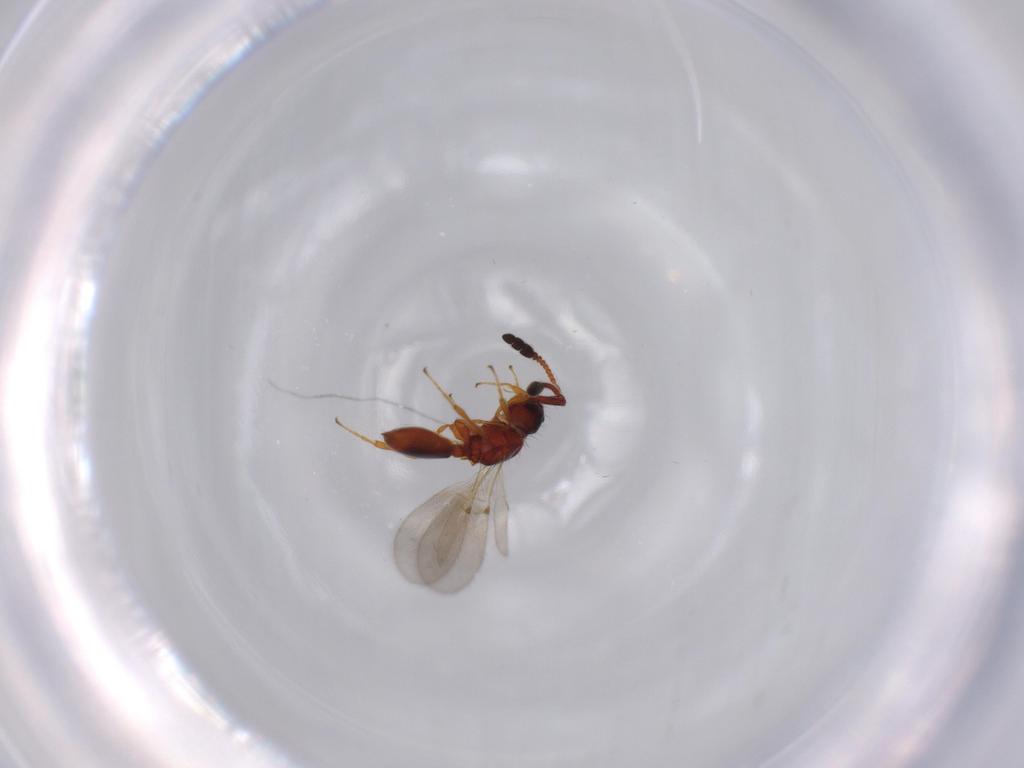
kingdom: Animalia
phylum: Arthropoda
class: Insecta
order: Hymenoptera
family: Diapriidae
